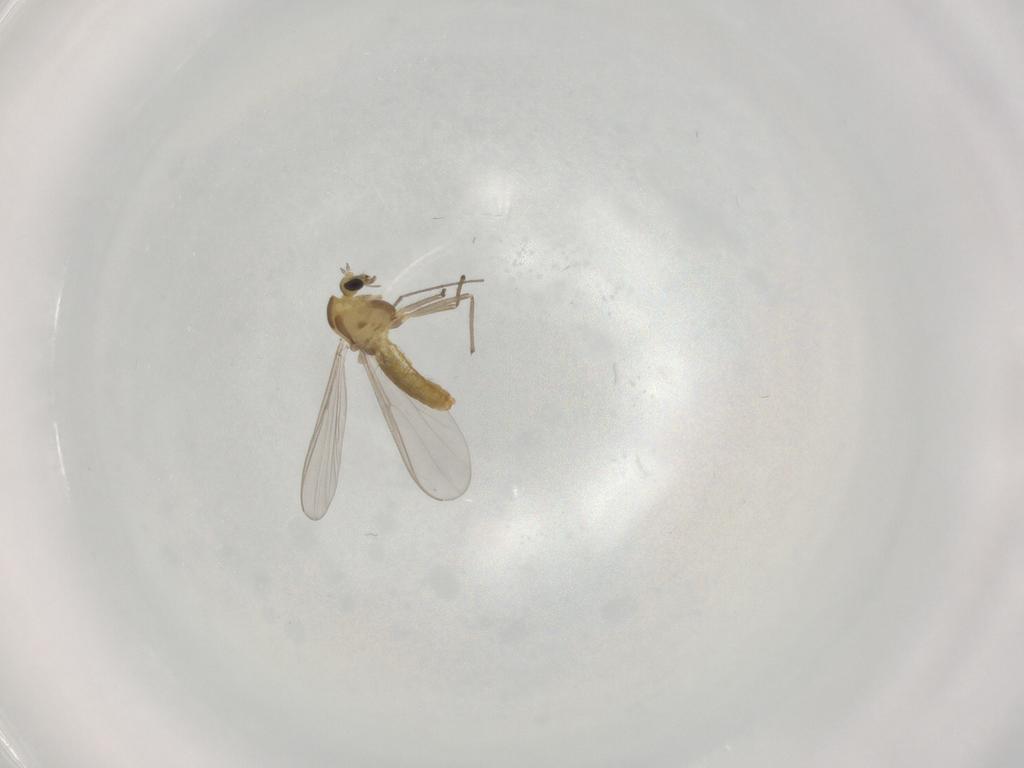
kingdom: Animalia
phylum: Arthropoda
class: Insecta
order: Diptera
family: Chironomidae
